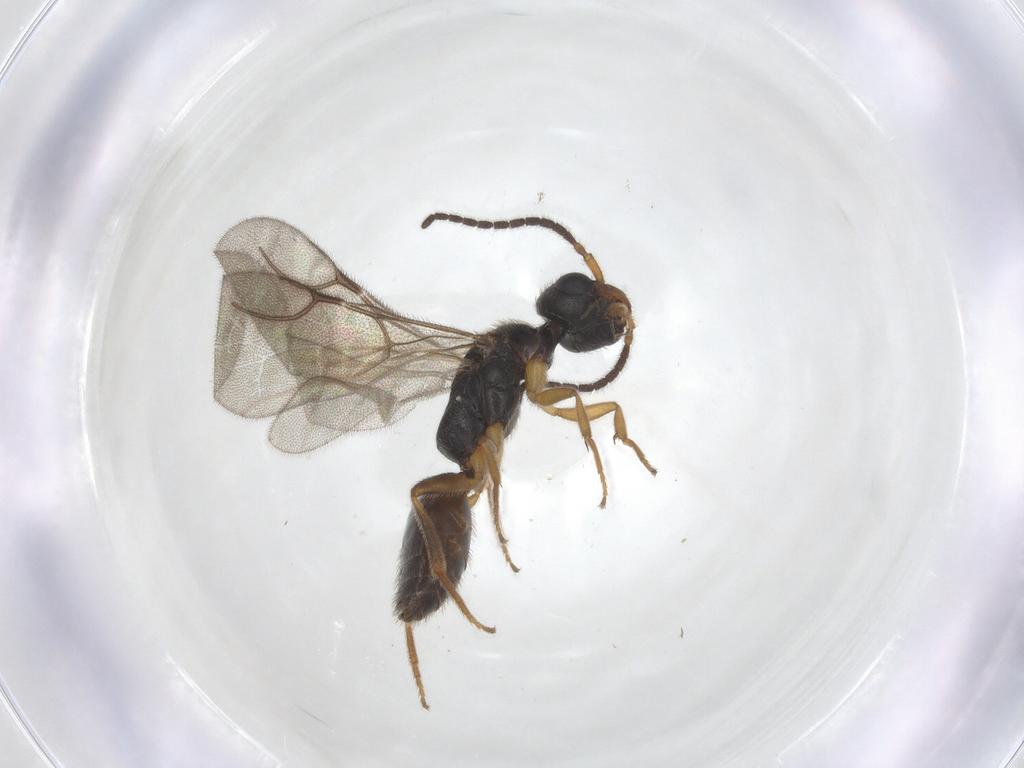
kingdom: Animalia
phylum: Arthropoda
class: Insecta
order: Hymenoptera
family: Bethylidae
